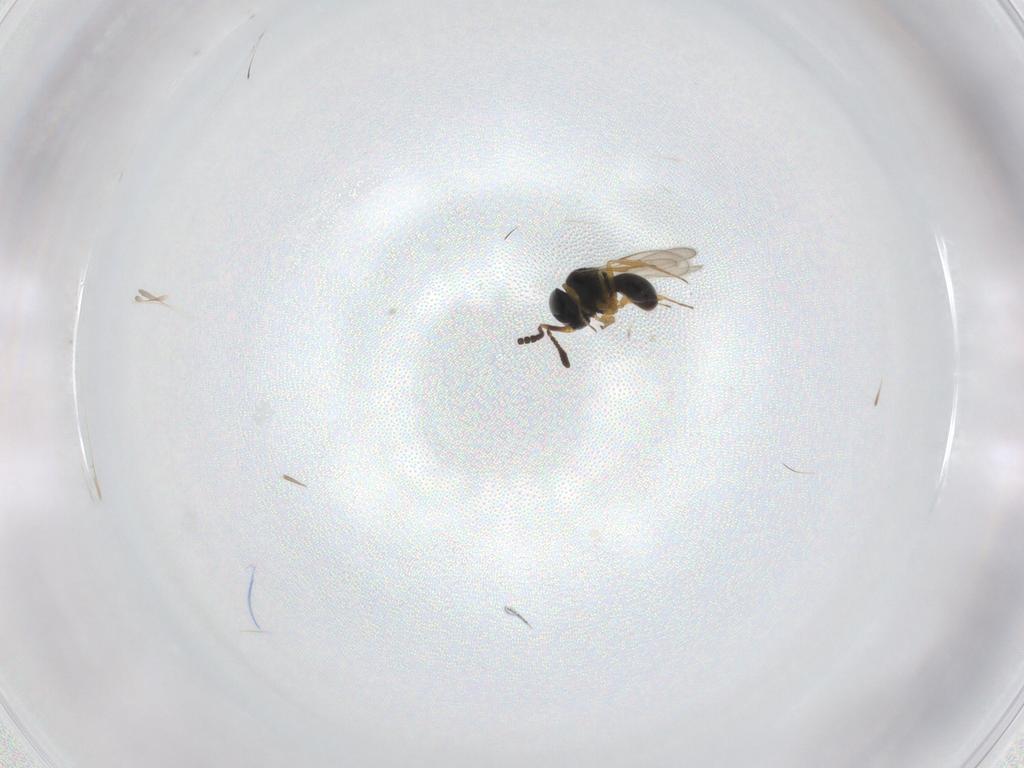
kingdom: Animalia
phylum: Arthropoda
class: Insecta
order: Hymenoptera
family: Scelionidae
